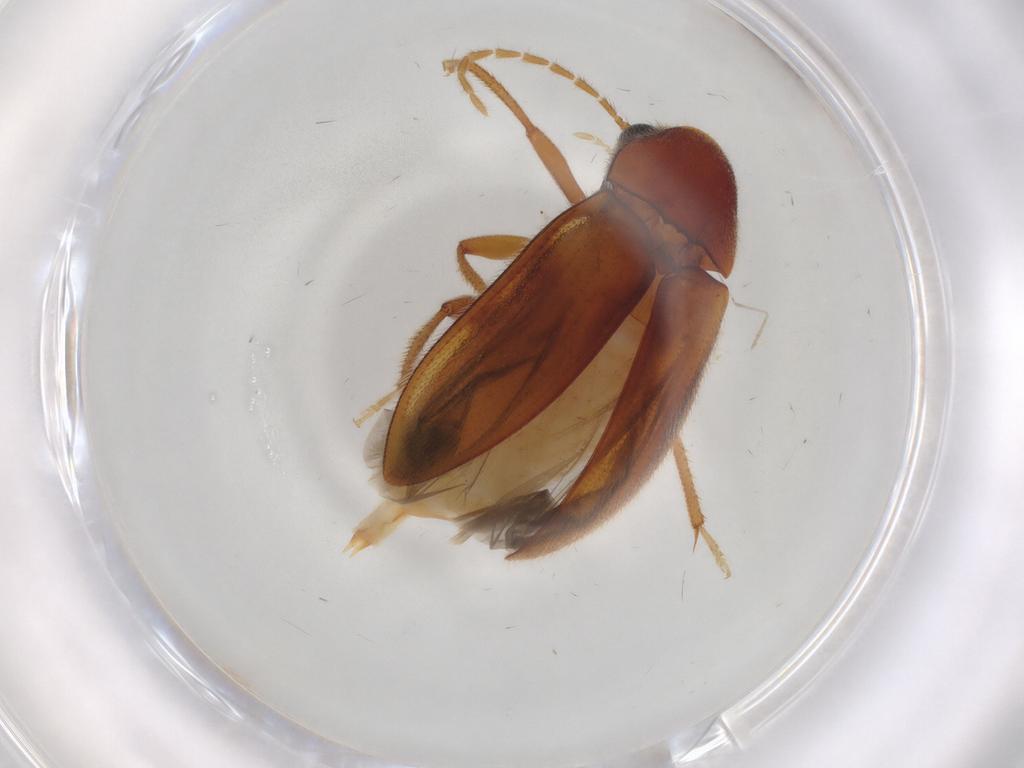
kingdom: Animalia
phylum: Arthropoda
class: Insecta
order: Coleoptera
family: Ptilodactylidae
